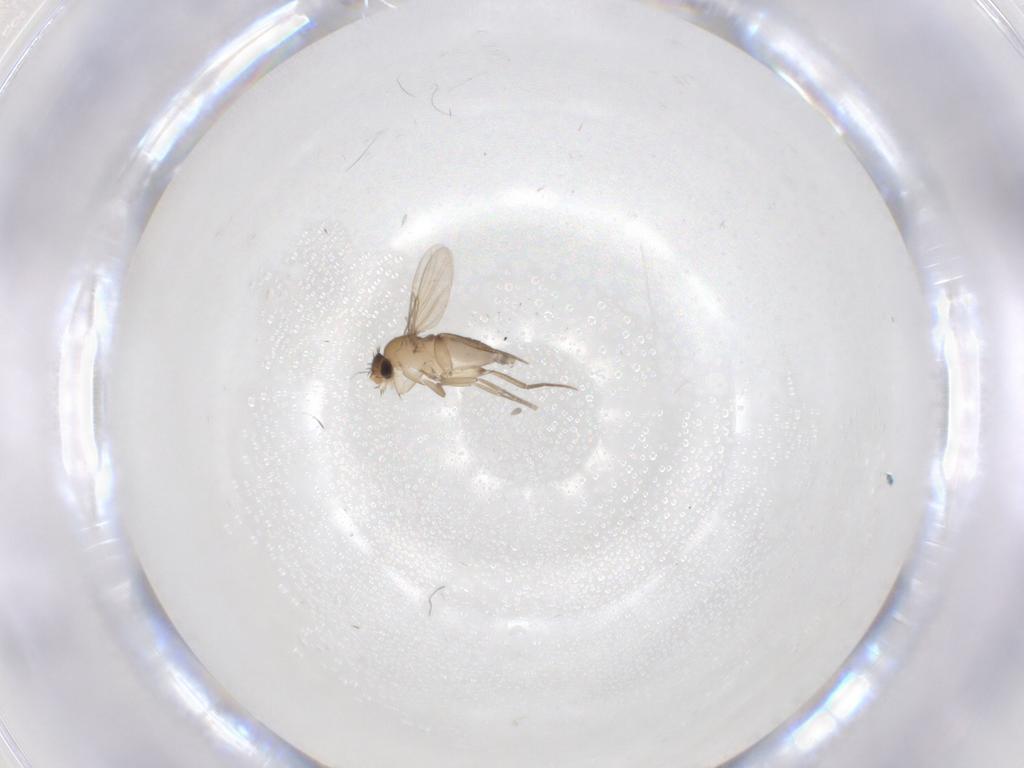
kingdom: Animalia
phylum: Arthropoda
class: Insecta
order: Diptera
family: Phoridae
